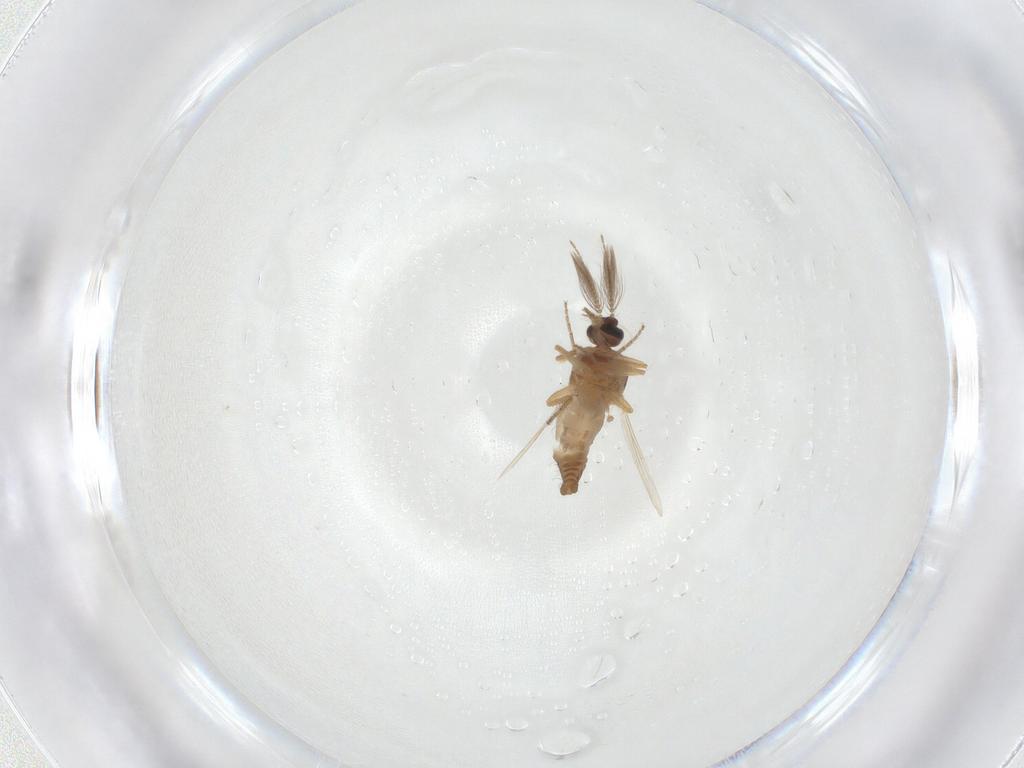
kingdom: Animalia
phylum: Arthropoda
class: Insecta
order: Diptera
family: Ceratopogonidae
